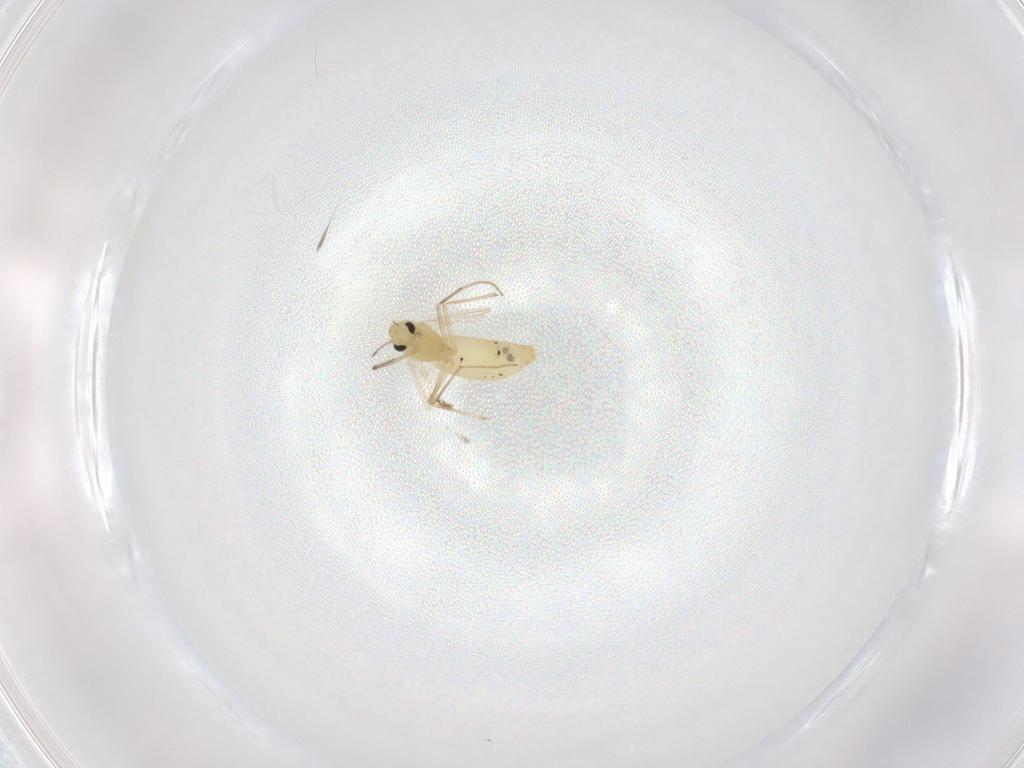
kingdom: Animalia
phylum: Arthropoda
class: Insecta
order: Diptera
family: Chironomidae
